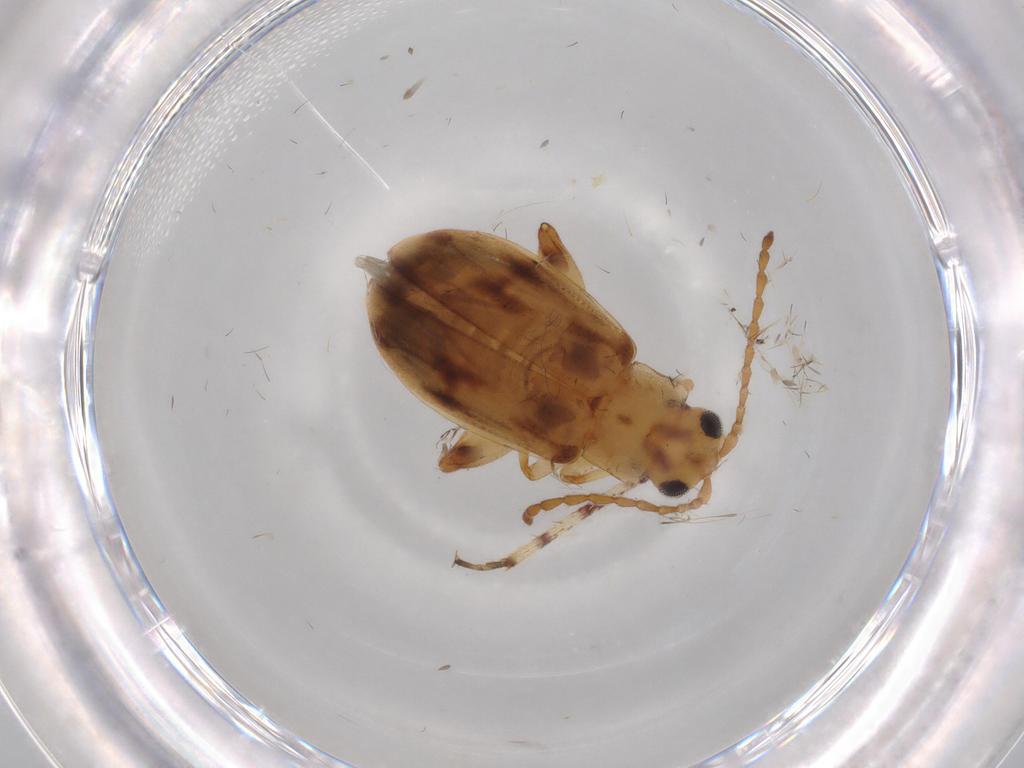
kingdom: Animalia
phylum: Arthropoda
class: Insecta
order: Coleoptera
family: Chrysomelidae
